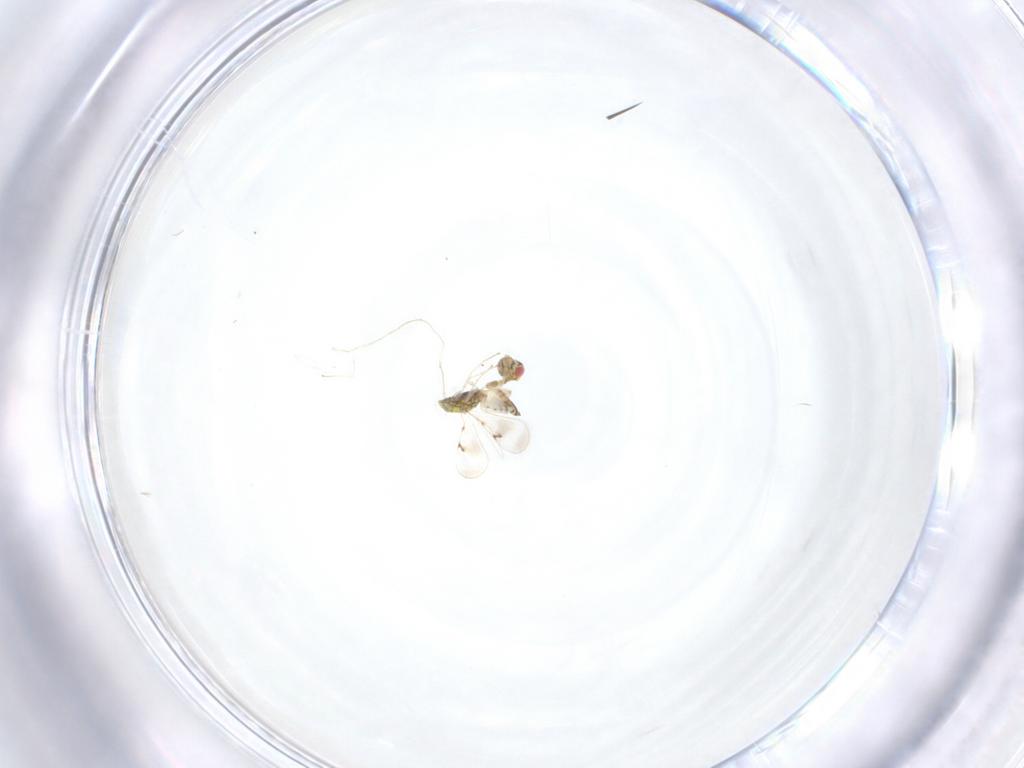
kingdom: Animalia
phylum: Arthropoda
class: Insecta
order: Hymenoptera
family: Eulophidae
